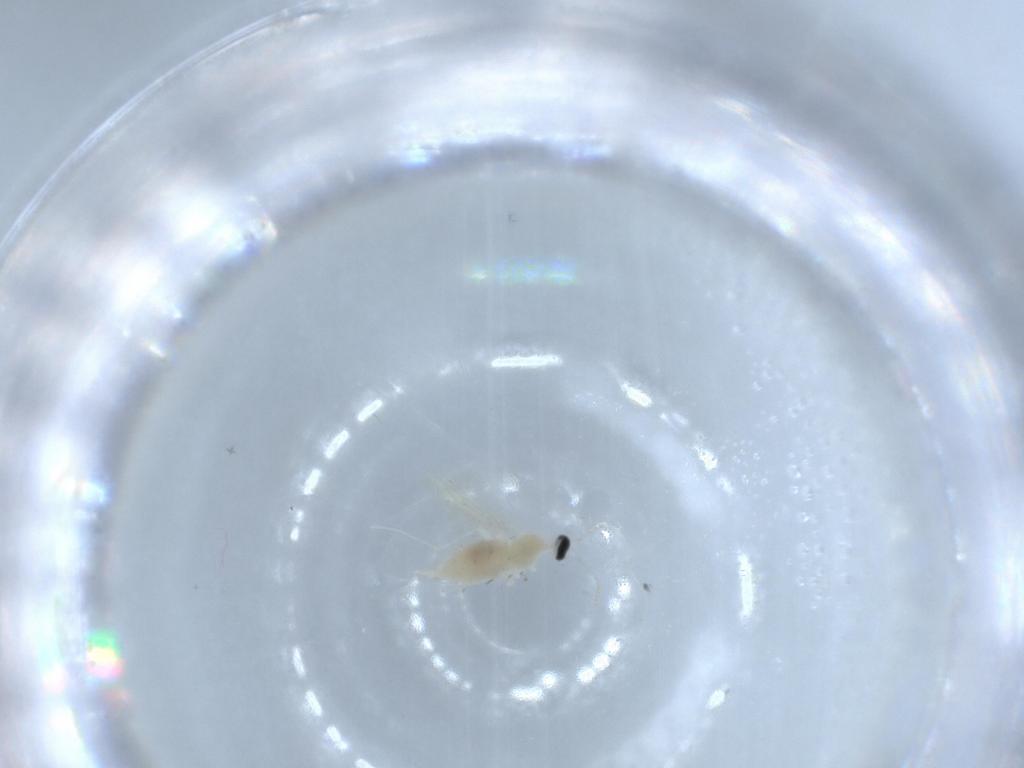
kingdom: Animalia
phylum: Arthropoda
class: Insecta
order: Diptera
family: Cecidomyiidae
